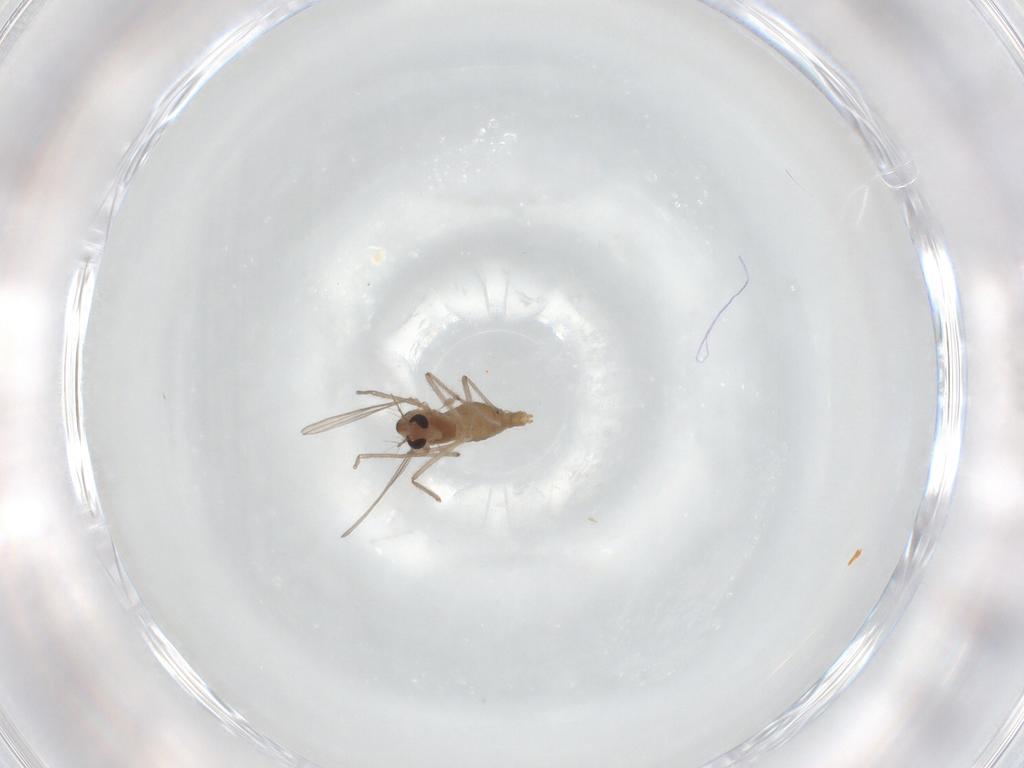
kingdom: Animalia
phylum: Arthropoda
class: Insecta
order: Diptera
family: Chironomidae
